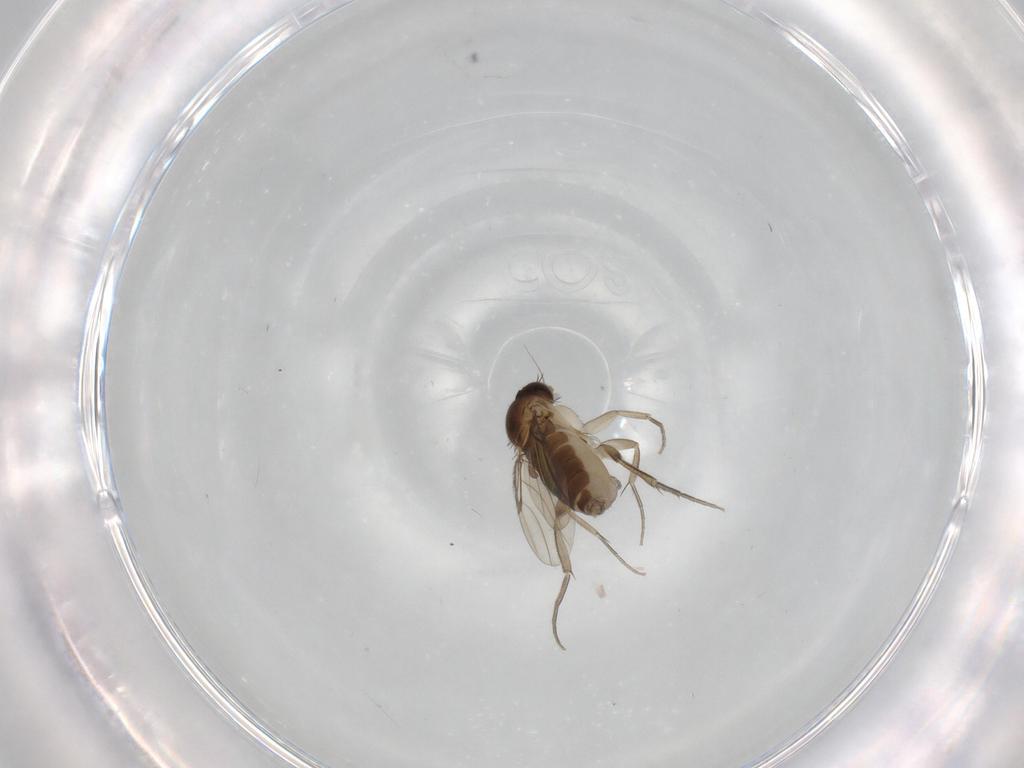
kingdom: Animalia
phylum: Arthropoda
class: Insecta
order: Diptera
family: Chironomidae
